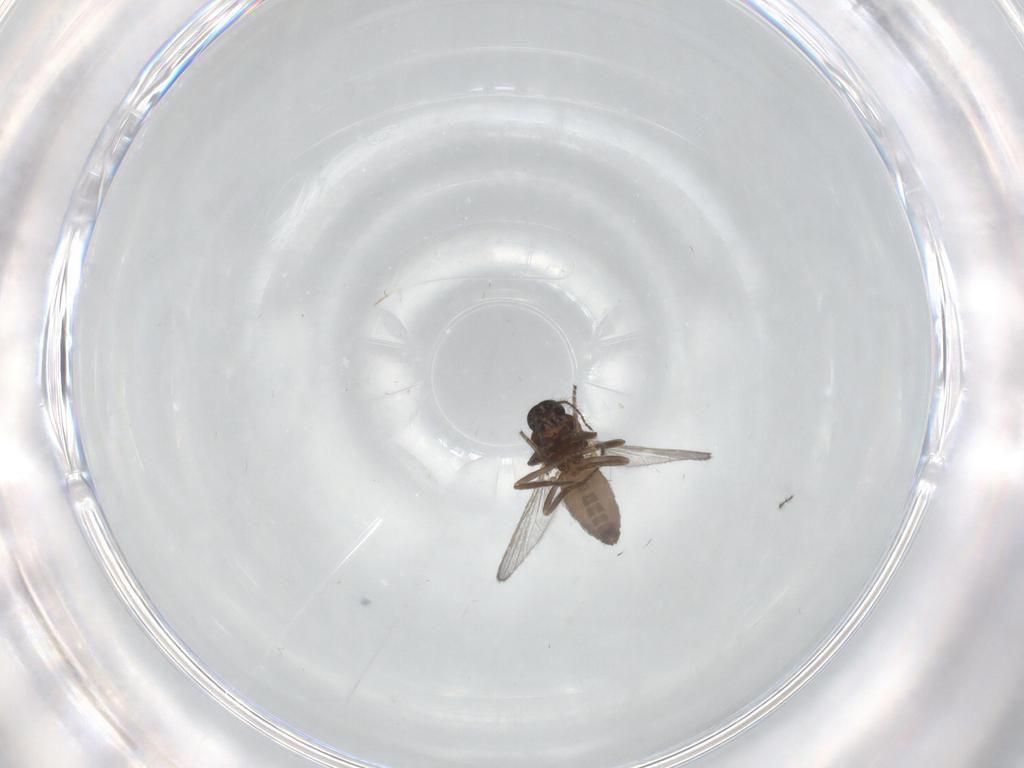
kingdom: Animalia
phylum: Arthropoda
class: Insecta
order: Diptera
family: Ceratopogonidae
